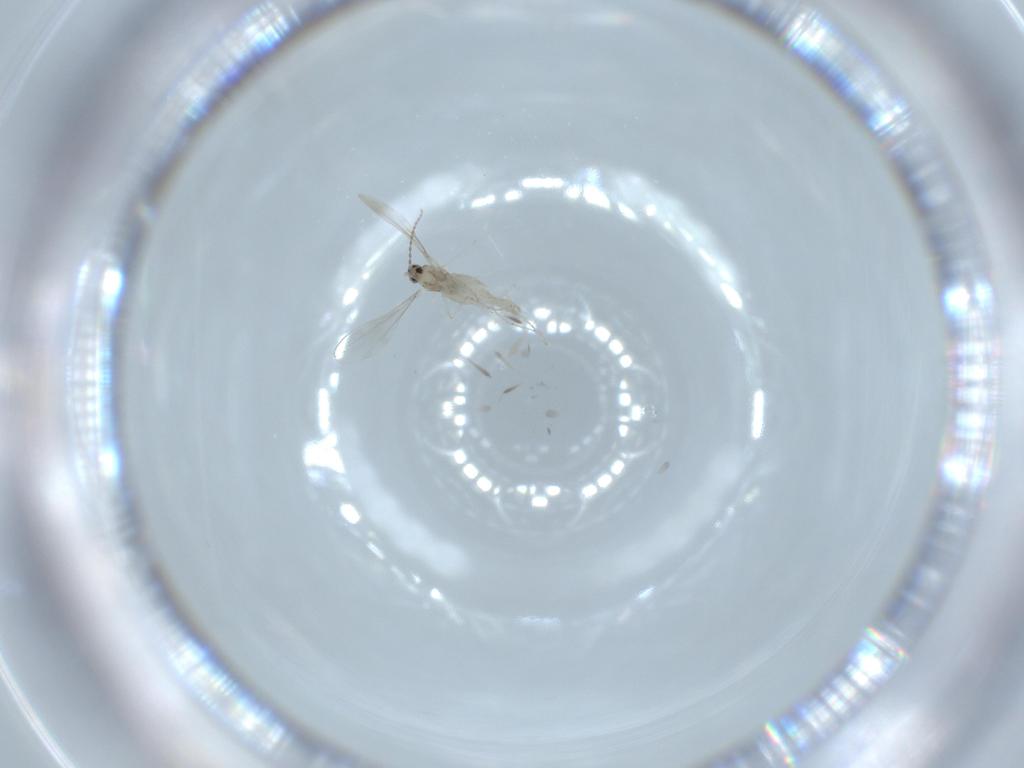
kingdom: Animalia
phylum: Arthropoda
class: Insecta
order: Diptera
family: Cecidomyiidae
